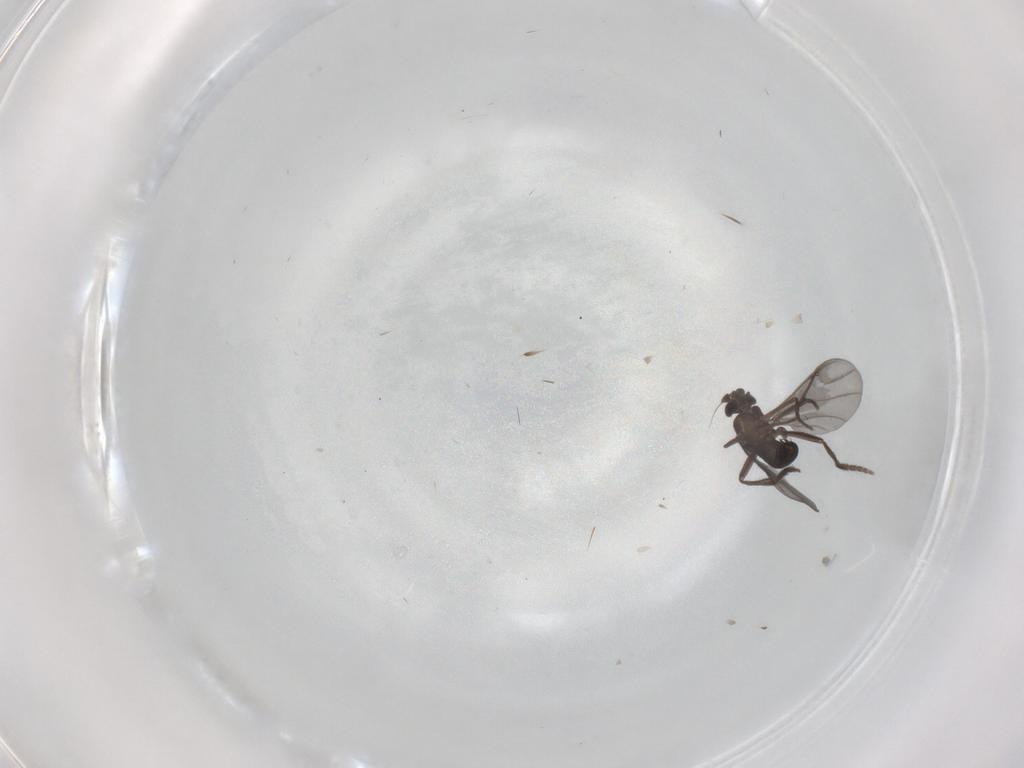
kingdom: Animalia
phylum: Arthropoda
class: Insecta
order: Diptera
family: Phoridae
